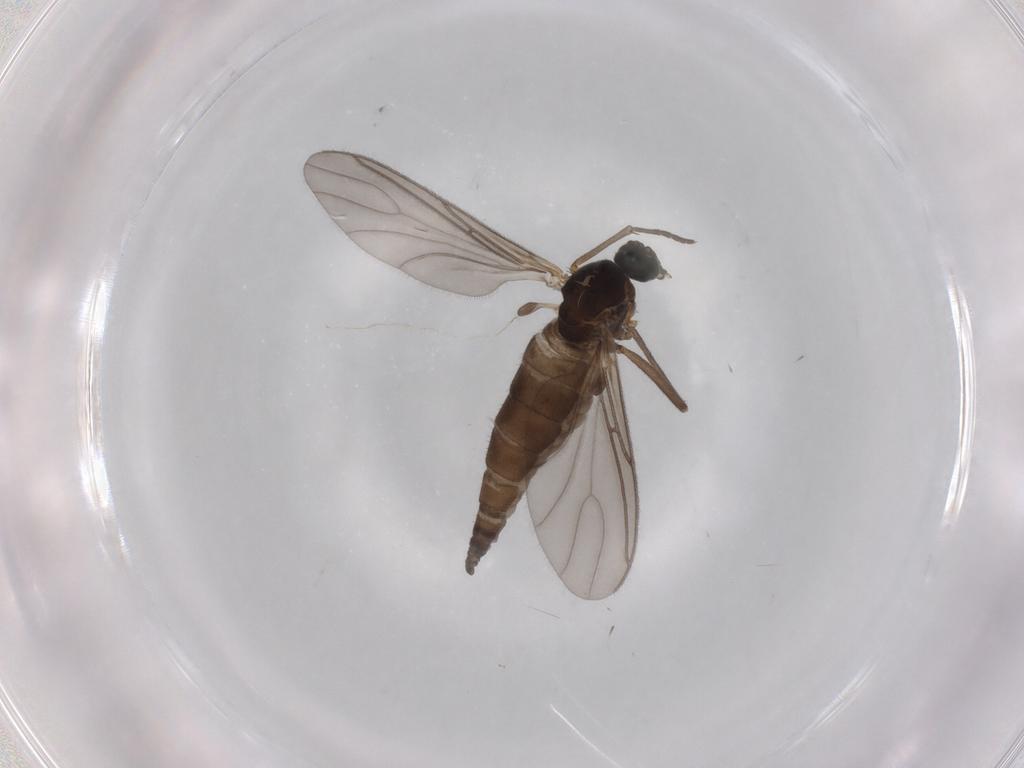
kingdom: Animalia
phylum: Arthropoda
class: Insecta
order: Diptera
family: Sciaridae
